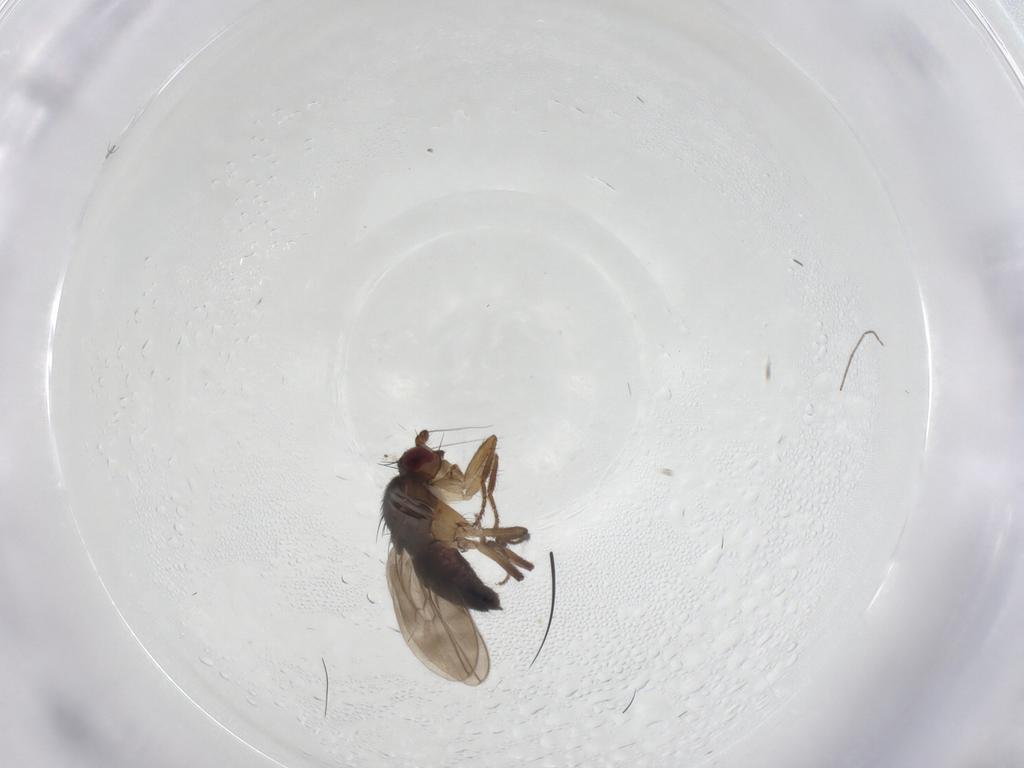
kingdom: Animalia
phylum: Arthropoda
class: Insecta
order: Diptera
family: Sphaeroceridae
